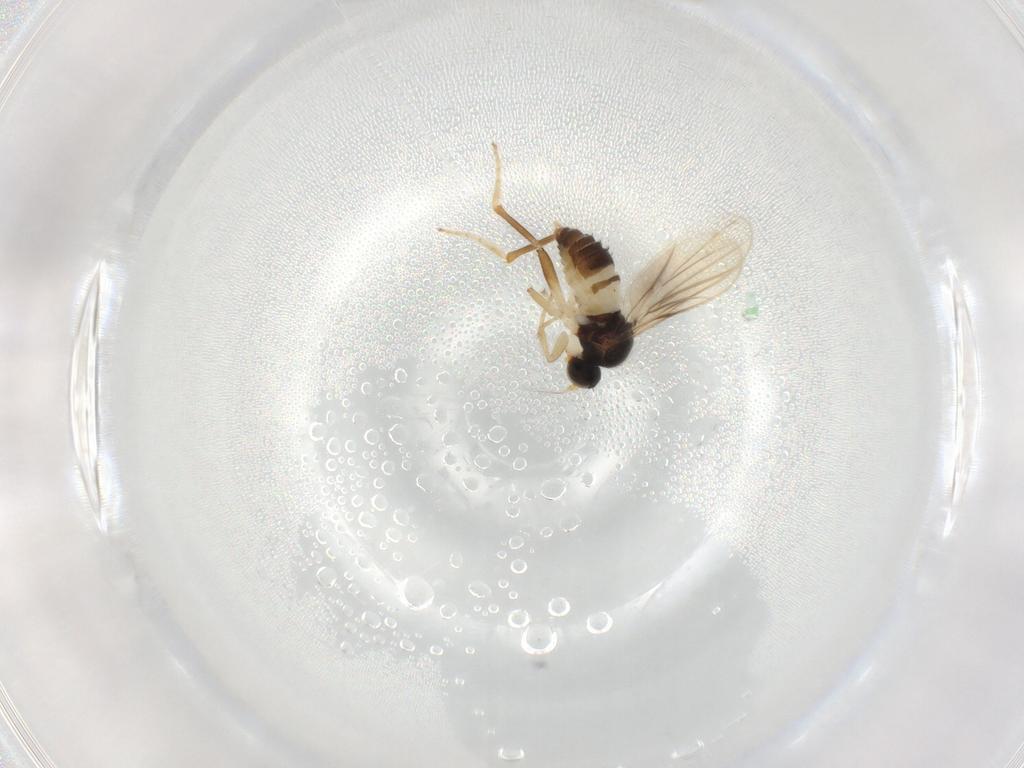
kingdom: Animalia
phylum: Arthropoda
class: Insecta
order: Diptera
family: Hybotidae
